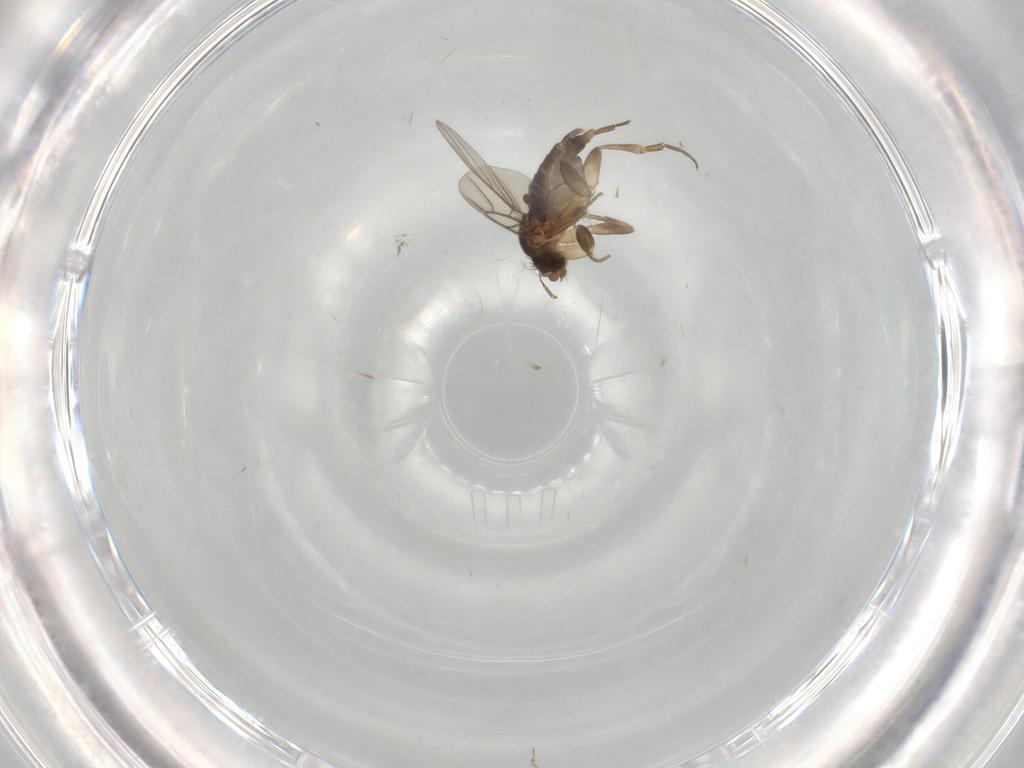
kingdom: Animalia
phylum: Arthropoda
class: Insecta
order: Diptera
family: Phoridae
